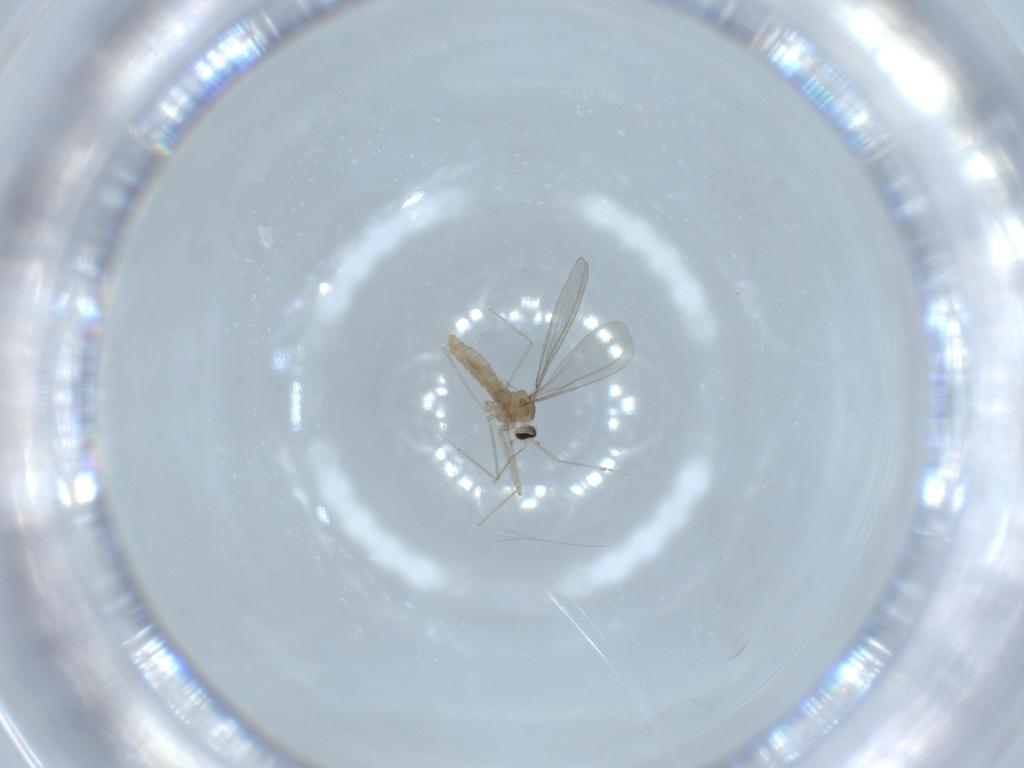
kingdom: Animalia
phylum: Arthropoda
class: Insecta
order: Diptera
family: Cecidomyiidae
